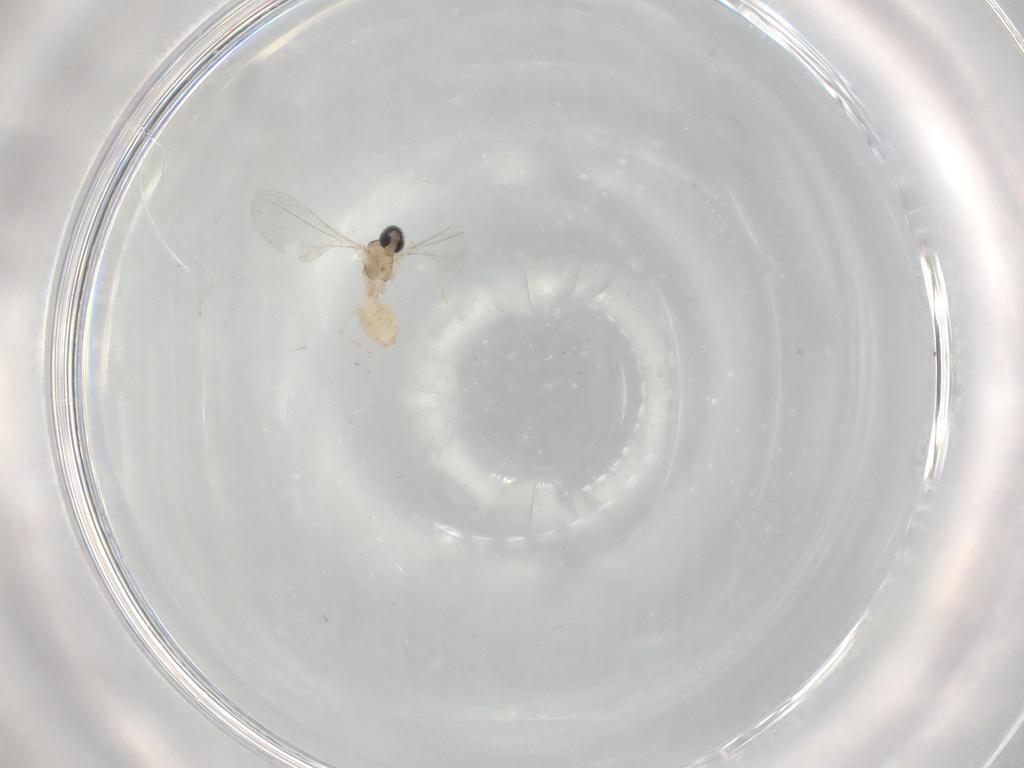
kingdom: Animalia
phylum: Arthropoda
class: Insecta
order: Diptera
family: Cecidomyiidae
